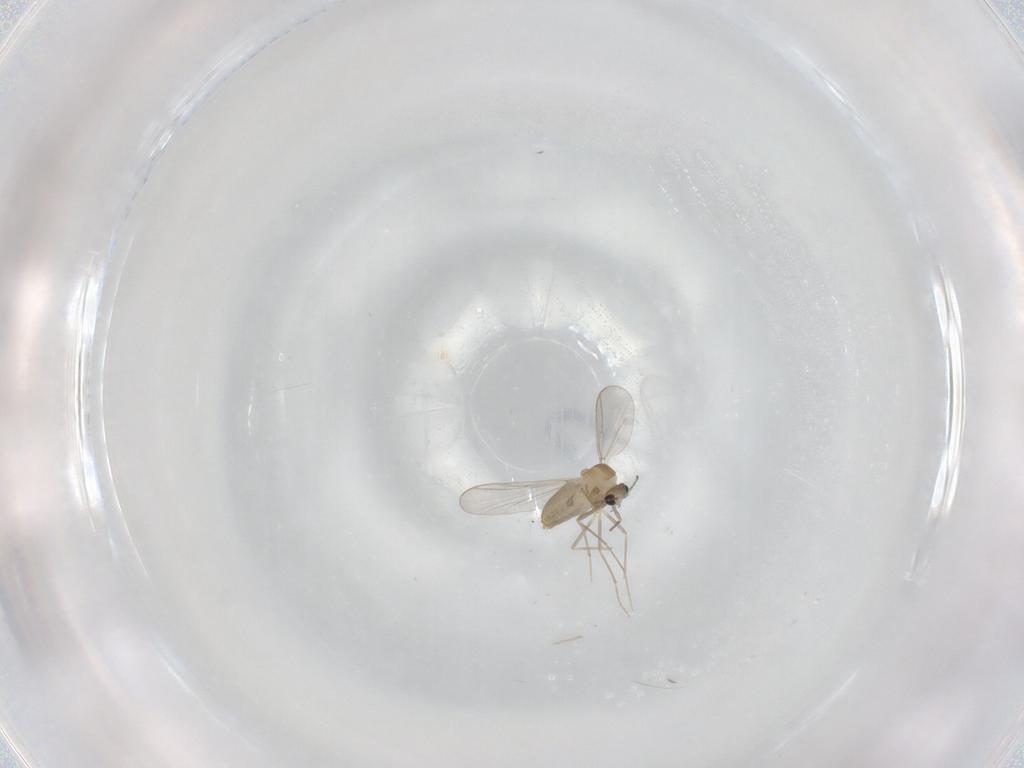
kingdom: Animalia
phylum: Arthropoda
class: Insecta
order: Diptera
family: Chironomidae
